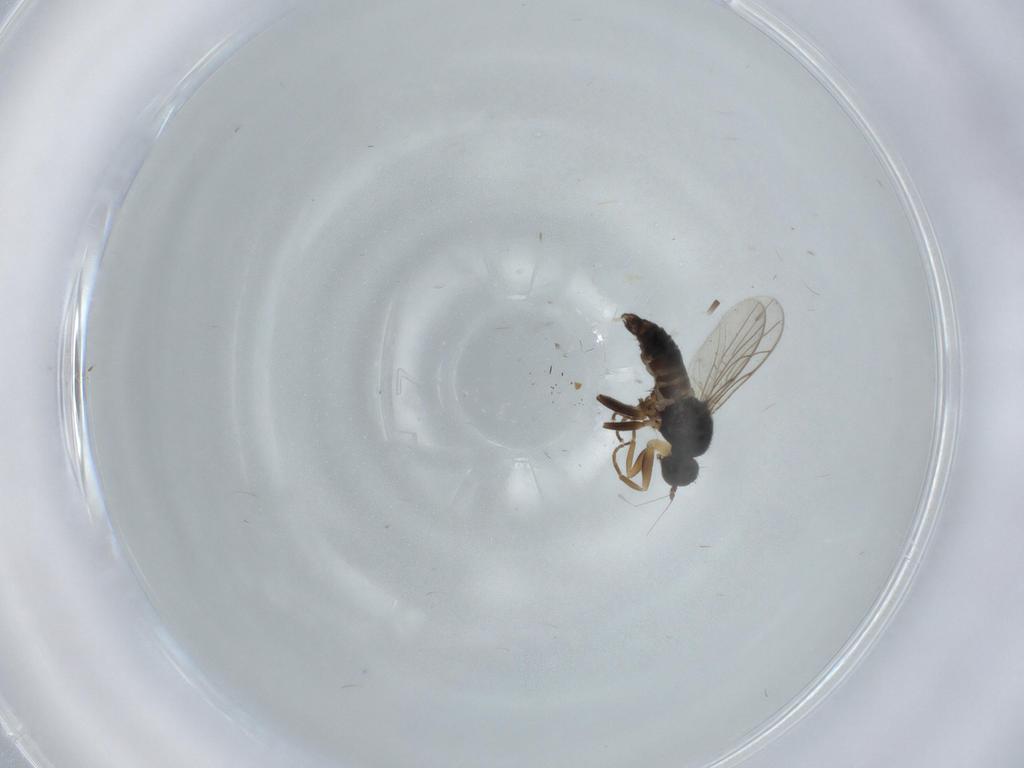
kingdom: Animalia
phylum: Arthropoda
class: Insecta
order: Diptera
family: Hybotidae
